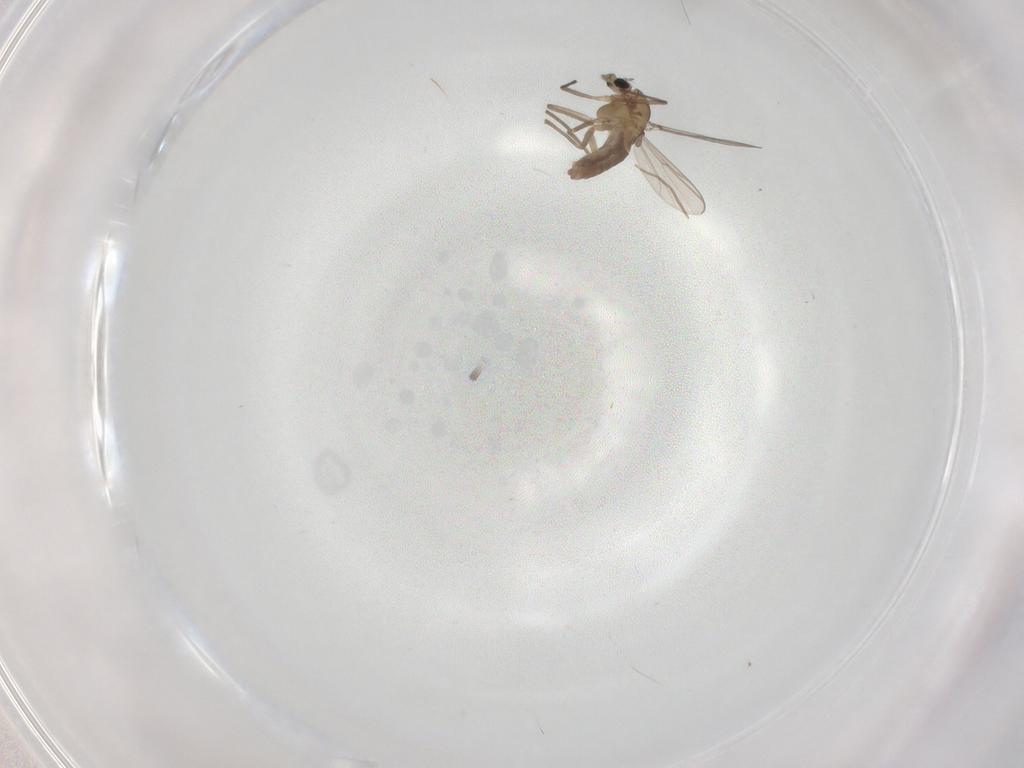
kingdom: Animalia
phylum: Arthropoda
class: Insecta
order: Diptera
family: Chironomidae
